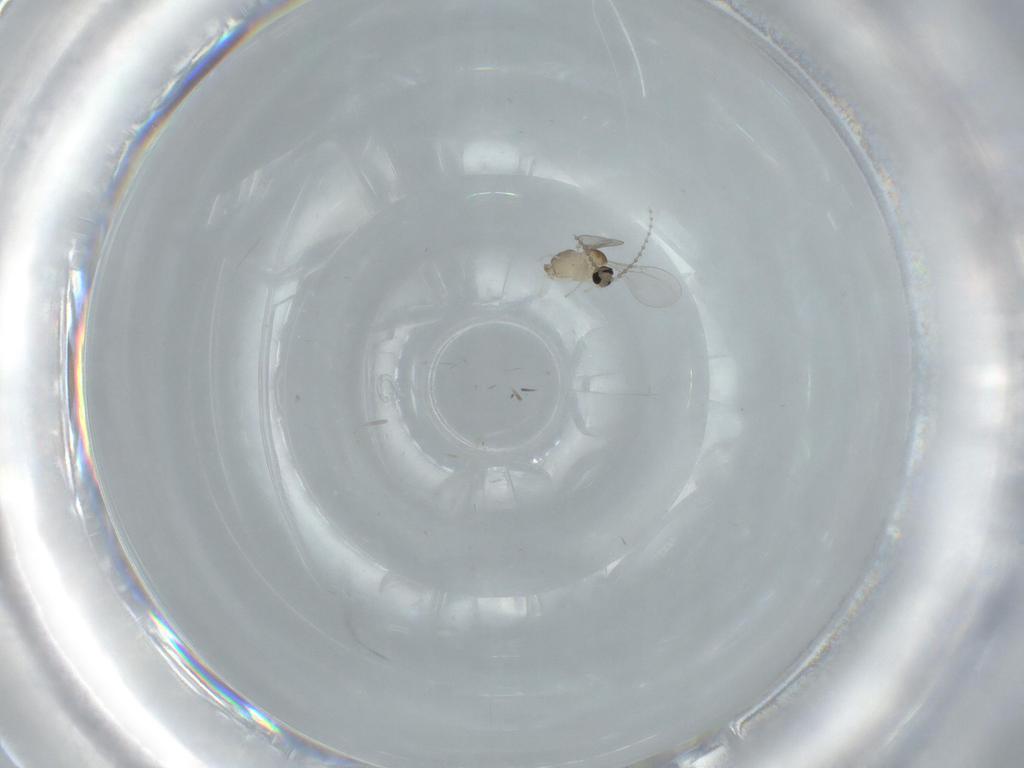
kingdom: Animalia
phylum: Arthropoda
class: Insecta
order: Diptera
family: Cecidomyiidae
